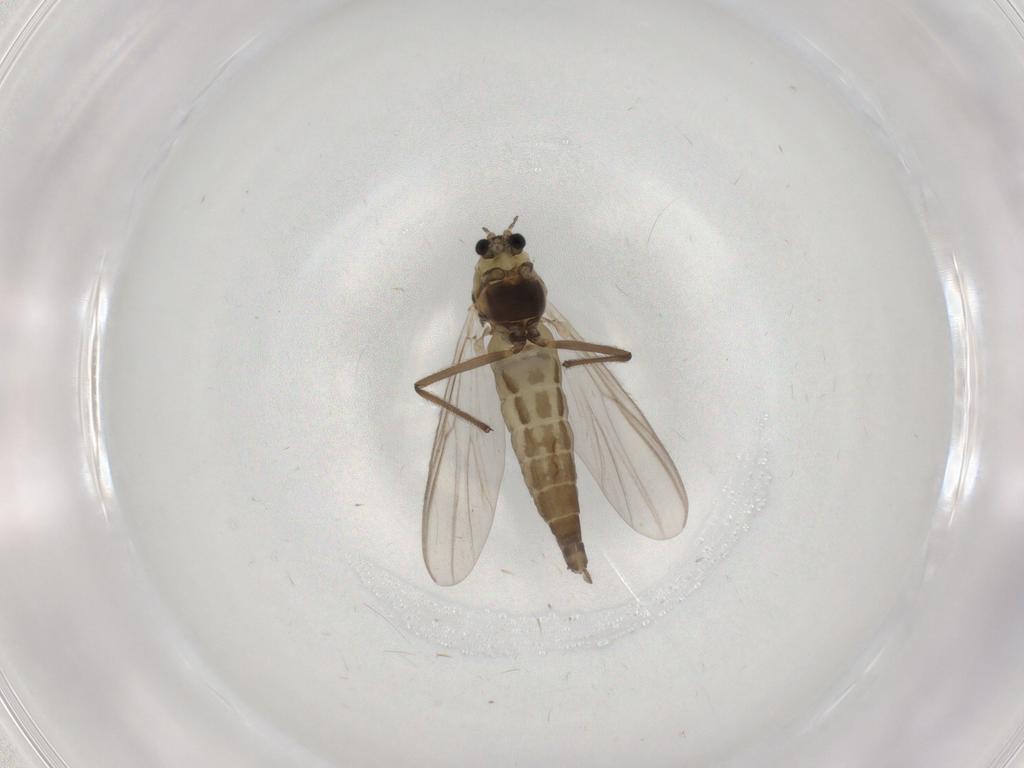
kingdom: Animalia
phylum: Arthropoda
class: Insecta
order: Diptera
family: Chironomidae
